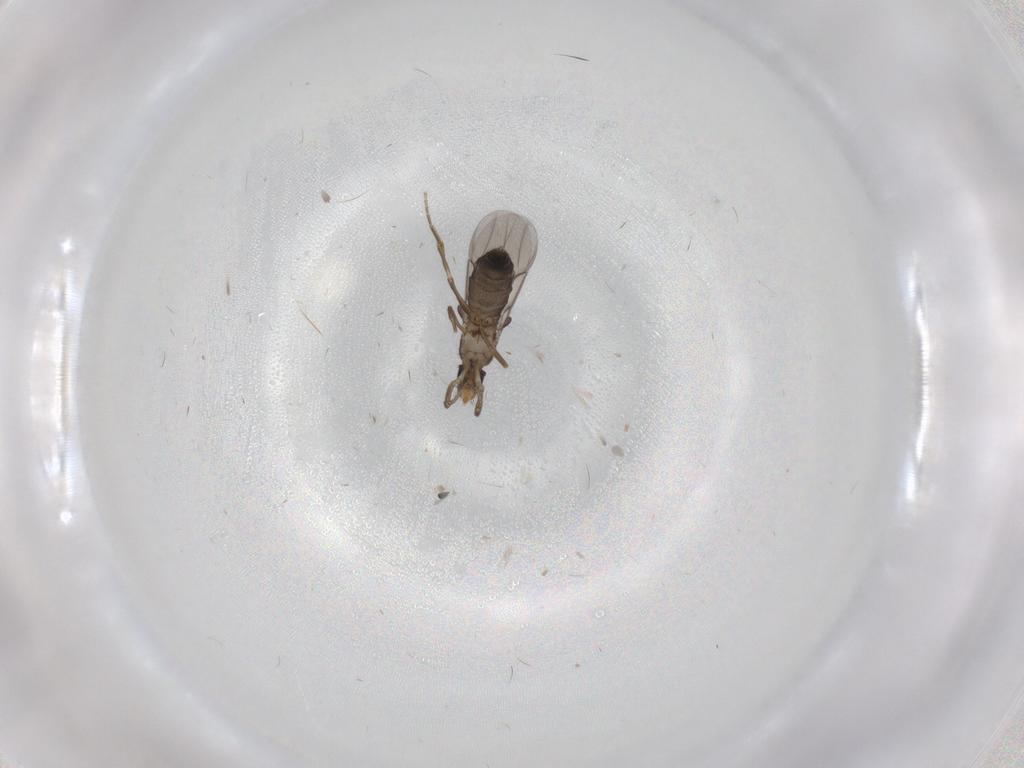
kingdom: Animalia
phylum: Arthropoda
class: Insecta
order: Diptera
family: Phoridae
